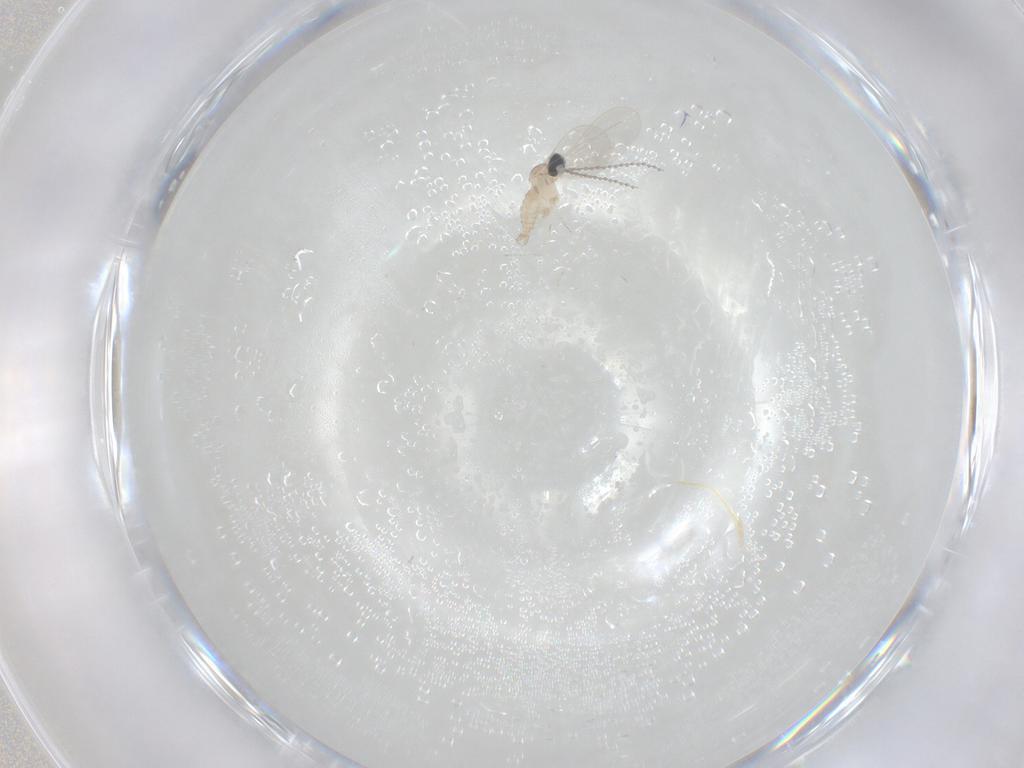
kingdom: Animalia
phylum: Arthropoda
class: Insecta
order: Diptera
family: Cecidomyiidae
